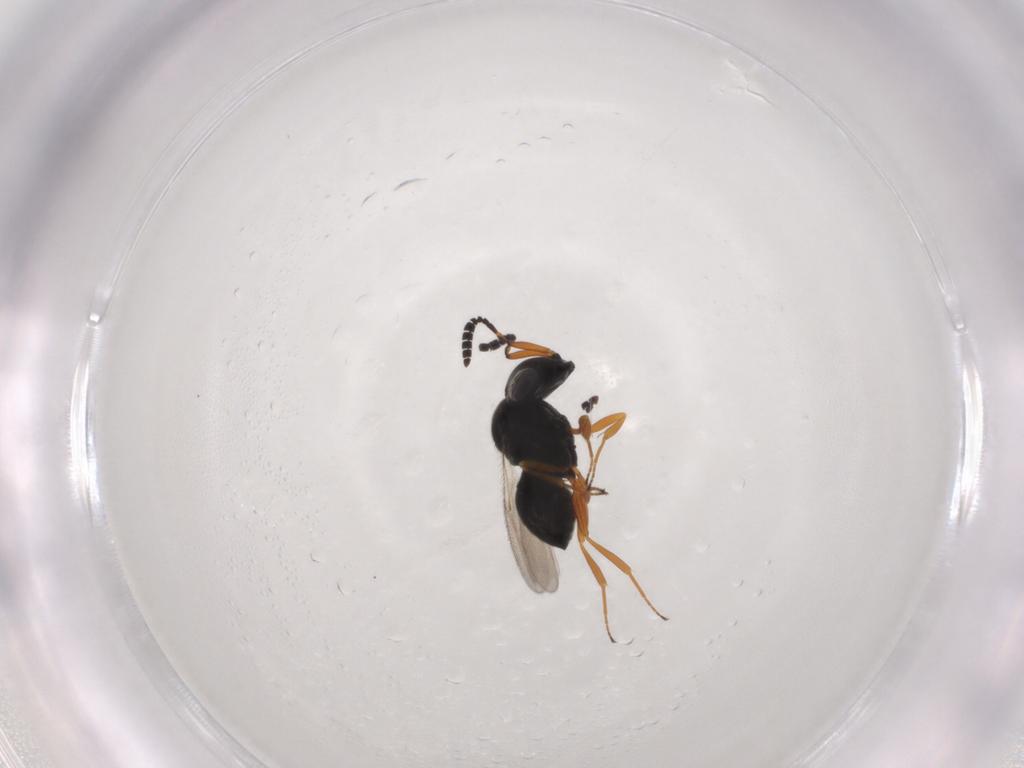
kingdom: Animalia
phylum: Arthropoda
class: Insecta
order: Hymenoptera
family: Scelionidae
